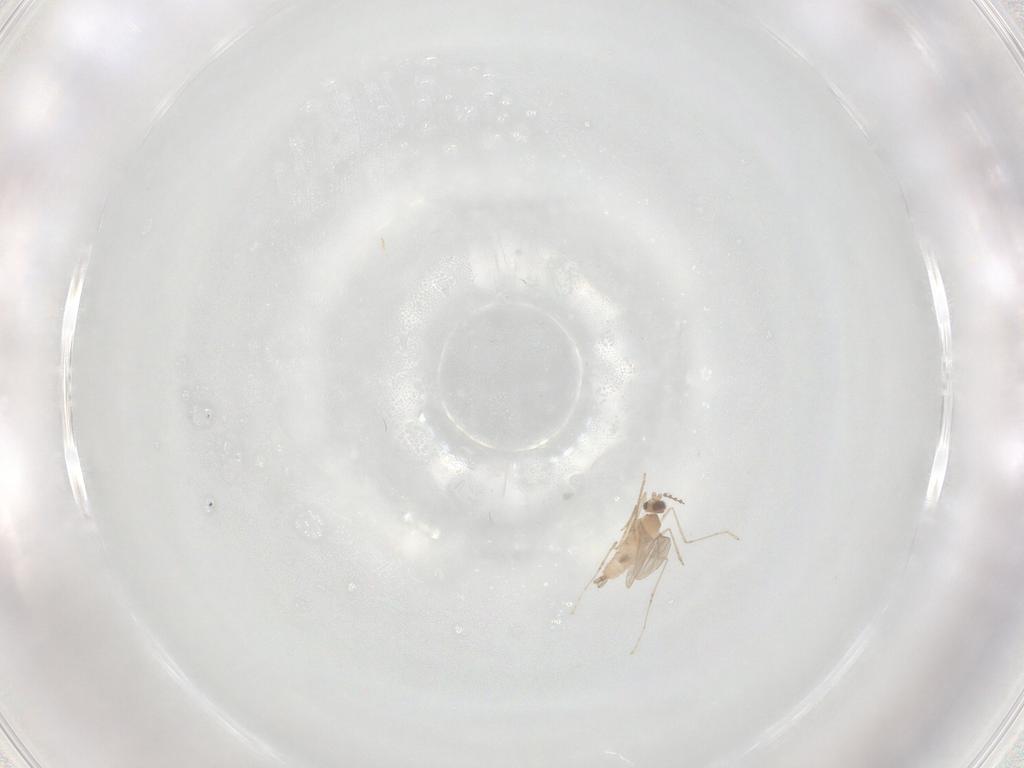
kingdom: Animalia
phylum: Arthropoda
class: Insecta
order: Diptera
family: Chironomidae
